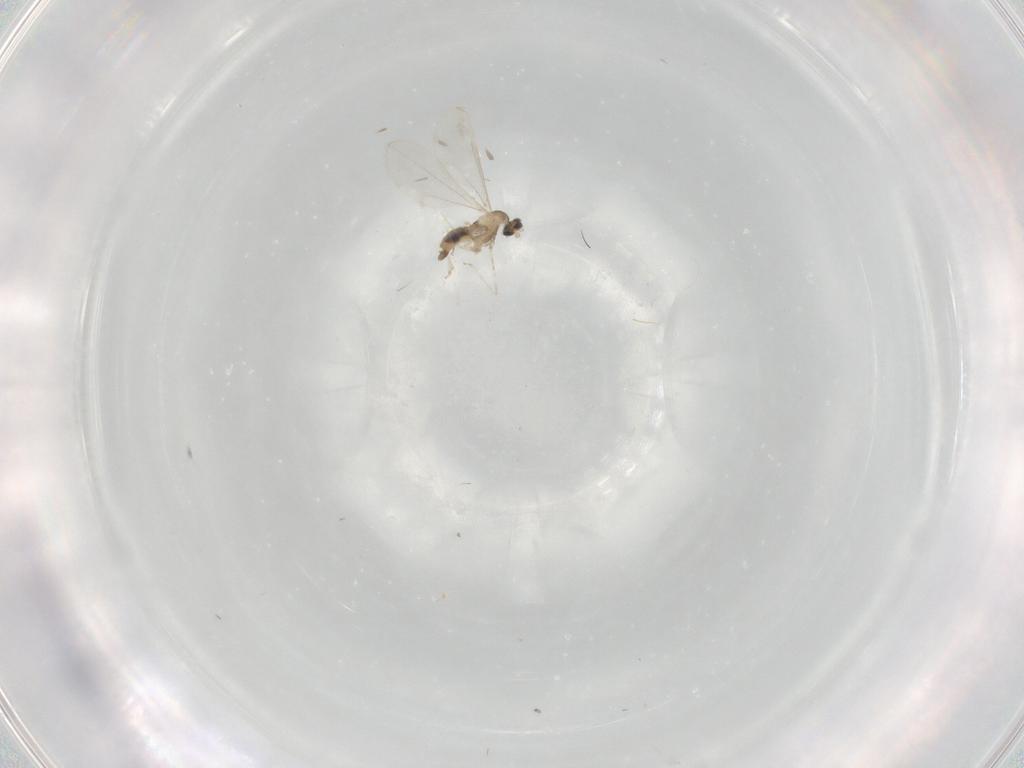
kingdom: Animalia
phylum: Arthropoda
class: Insecta
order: Diptera
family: Cecidomyiidae
